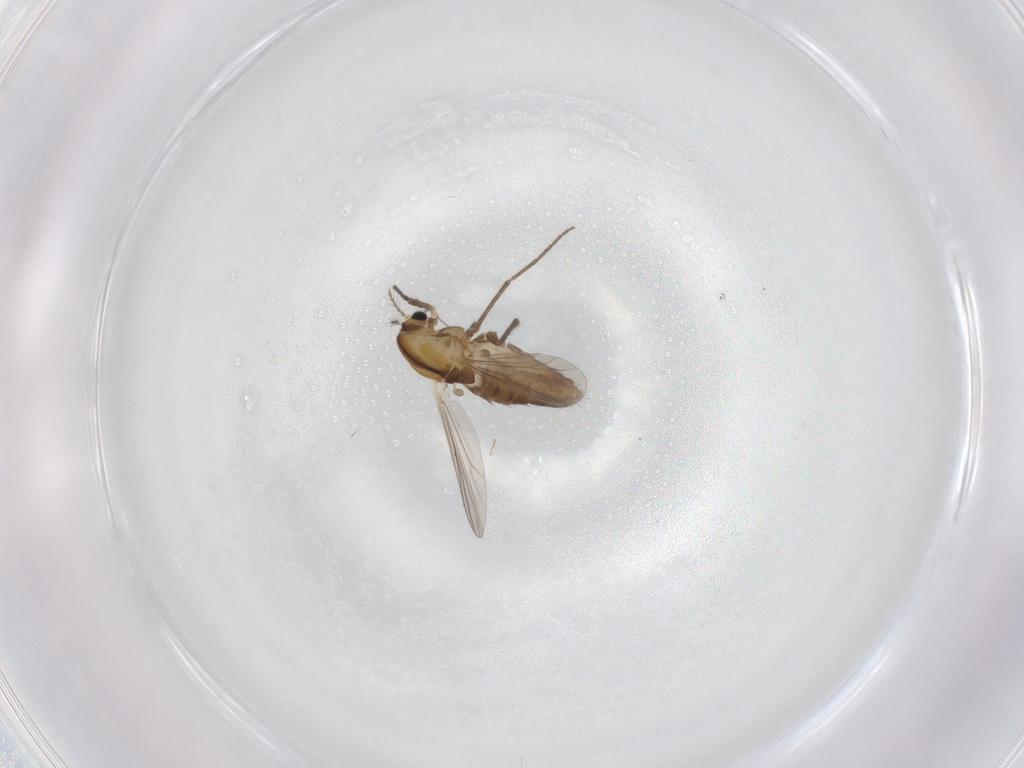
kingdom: Animalia
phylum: Arthropoda
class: Insecta
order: Diptera
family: Chironomidae
